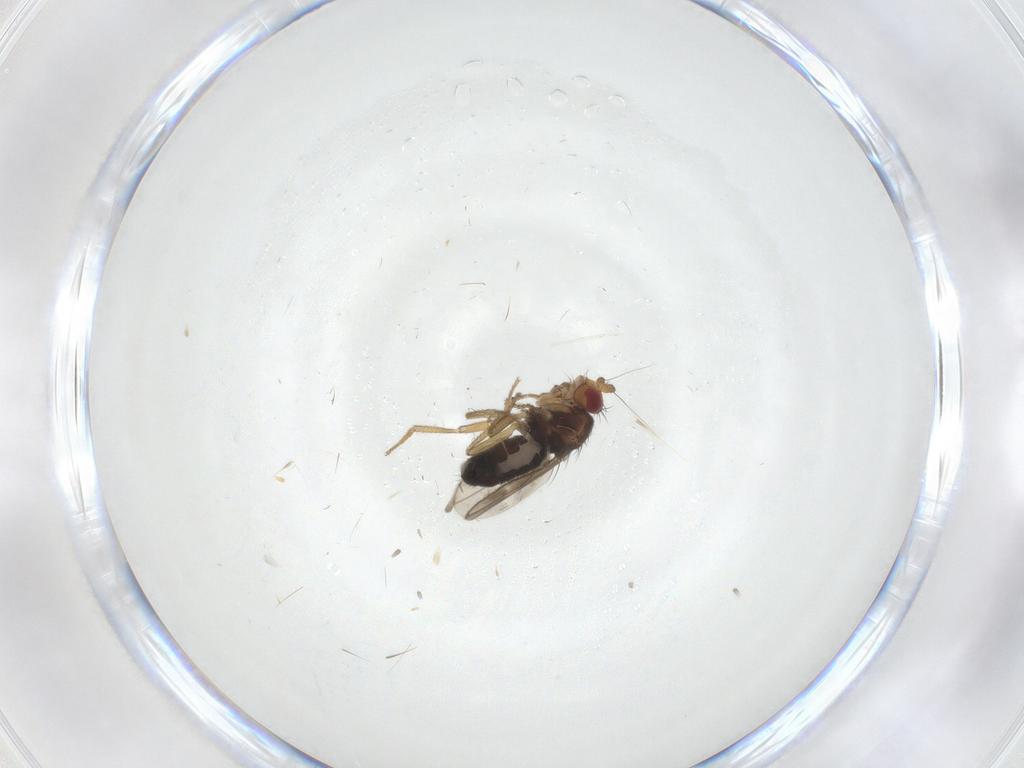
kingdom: Animalia
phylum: Arthropoda
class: Insecta
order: Diptera
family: Sphaeroceridae
